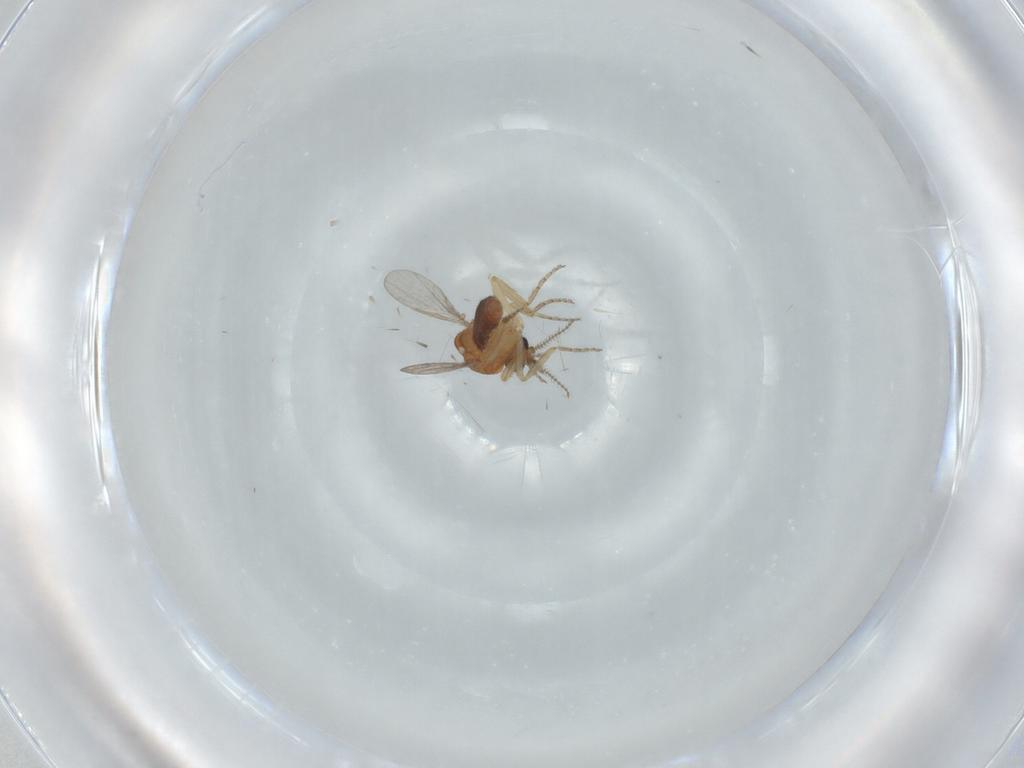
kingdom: Animalia
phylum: Arthropoda
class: Insecta
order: Diptera
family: Ceratopogonidae
